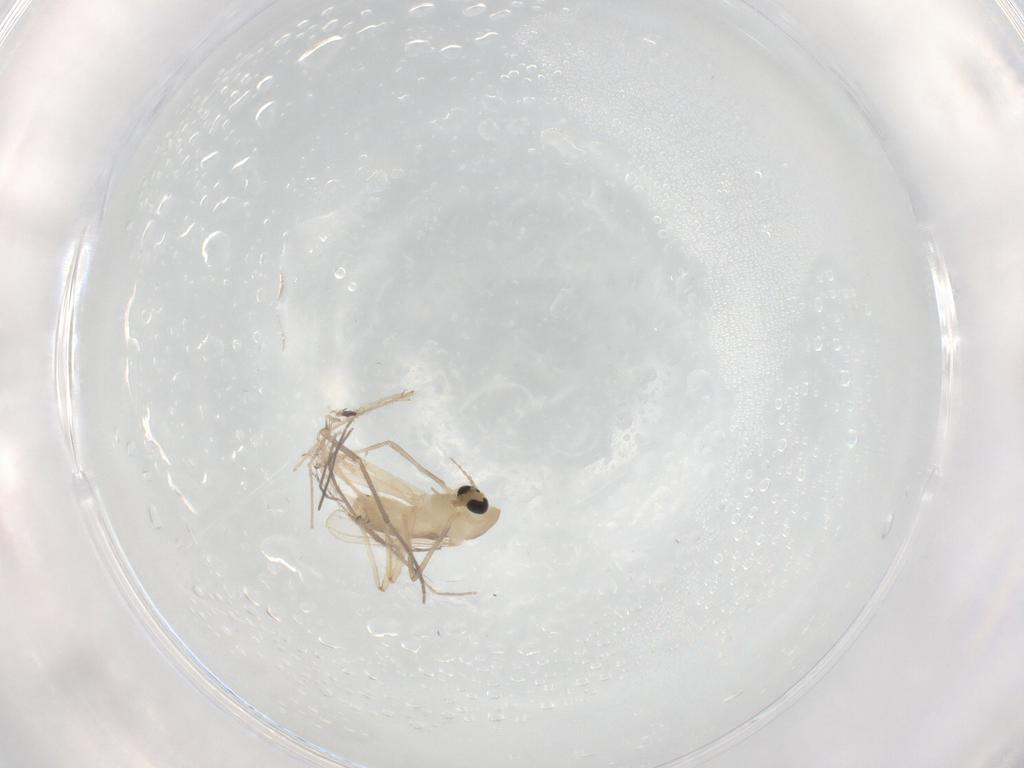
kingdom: Animalia
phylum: Arthropoda
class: Insecta
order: Diptera
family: Chironomidae
